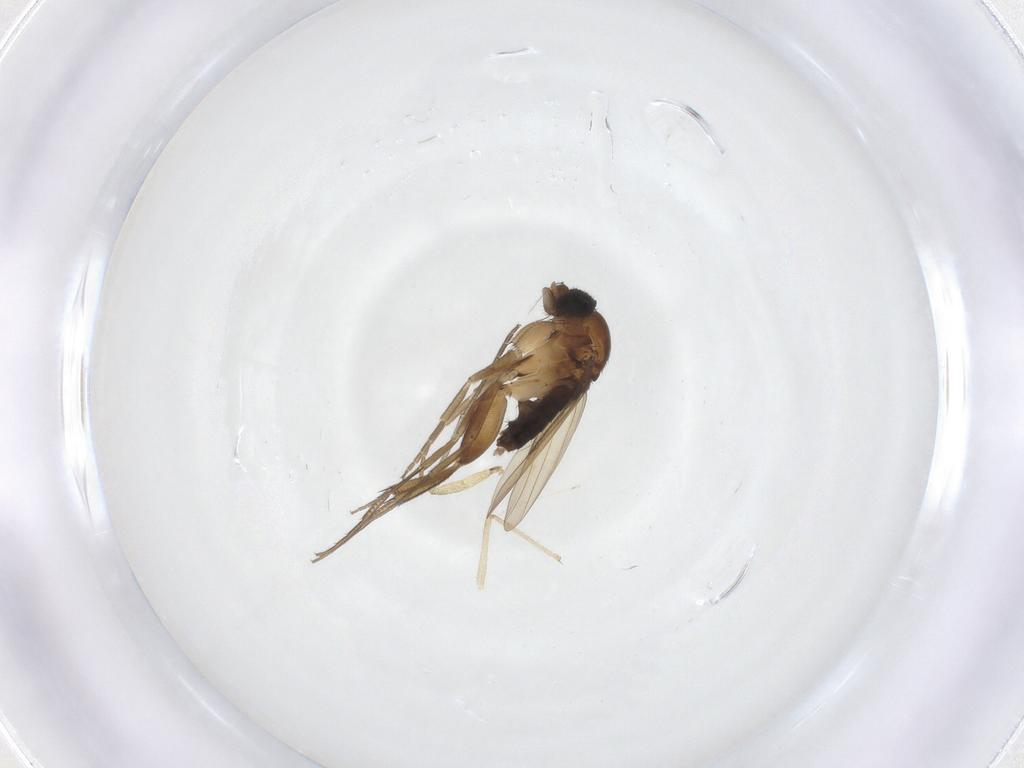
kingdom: Animalia
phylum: Arthropoda
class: Insecta
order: Diptera
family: Phoridae
